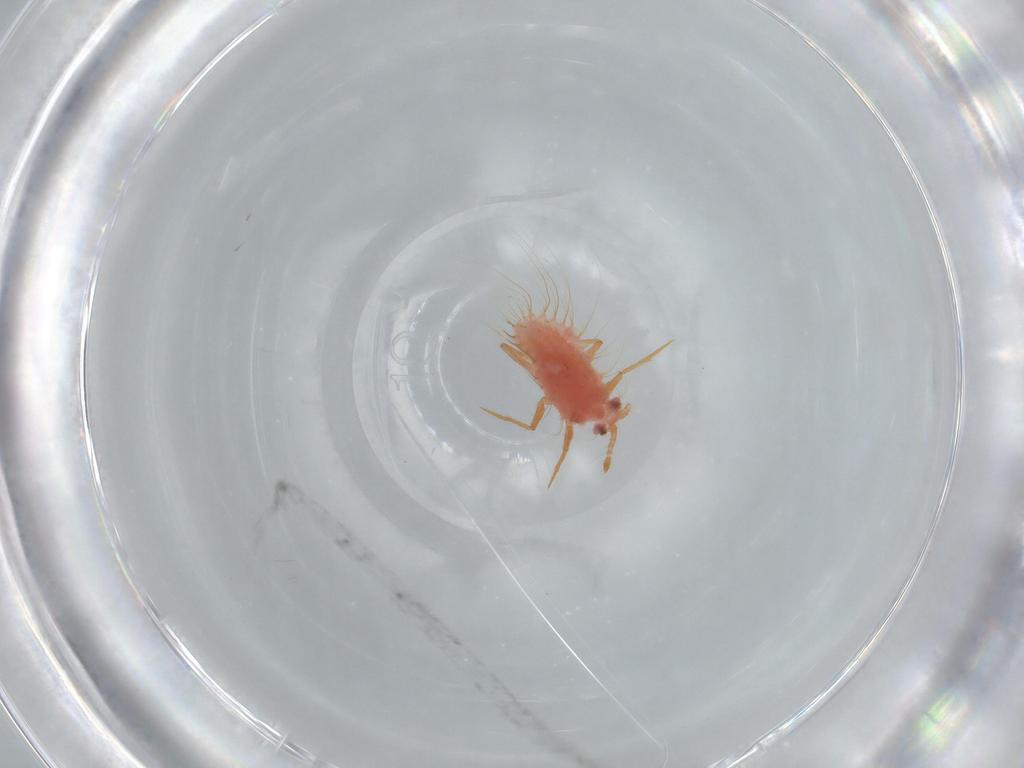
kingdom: Animalia
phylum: Arthropoda
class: Insecta
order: Hemiptera
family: Monophlebidae
